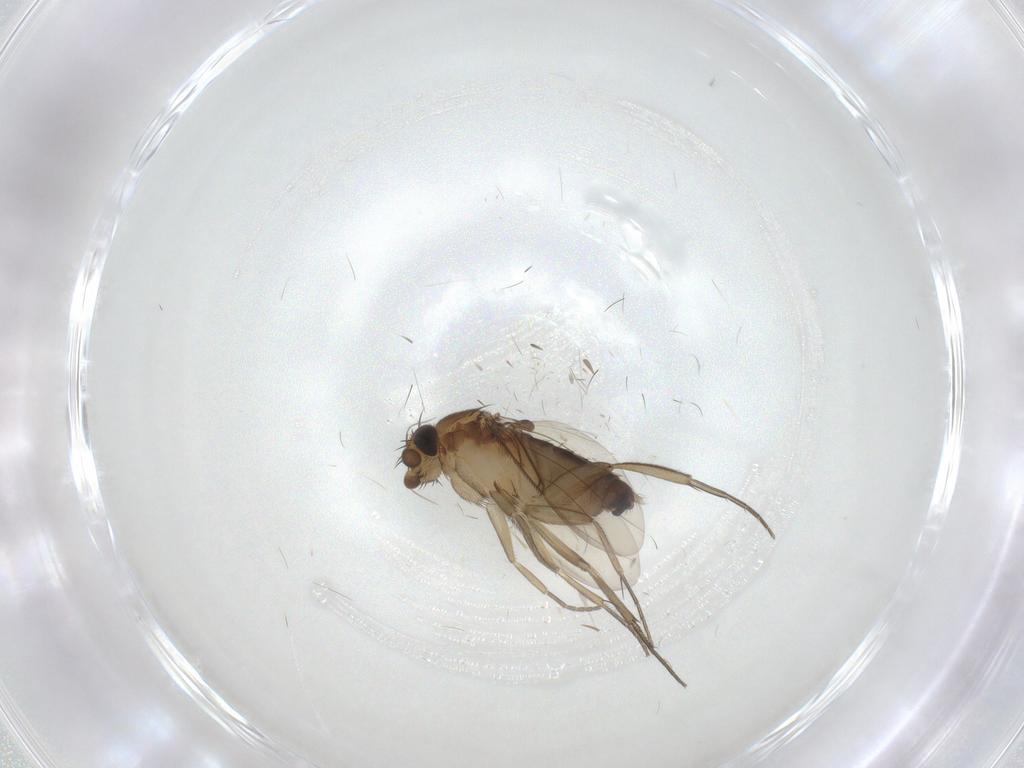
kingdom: Animalia
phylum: Arthropoda
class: Insecta
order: Diptera
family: Phoridae
